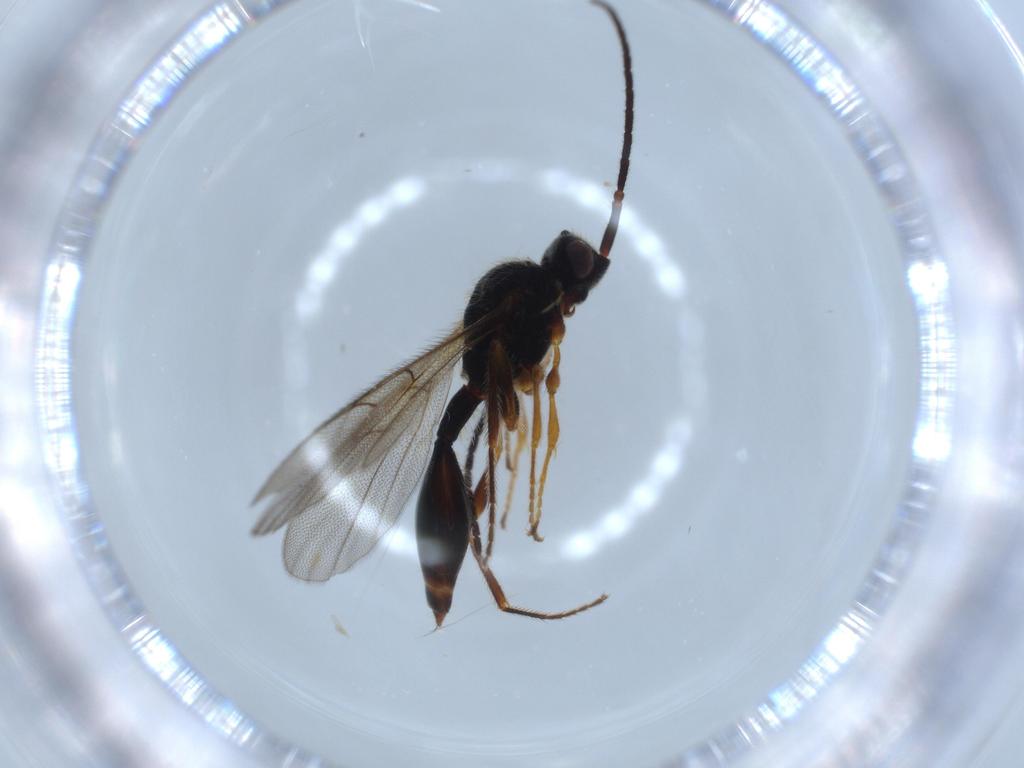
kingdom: Animalia
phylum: Arthropoda
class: Insecta
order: Hymenoptera
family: Diapriidae
